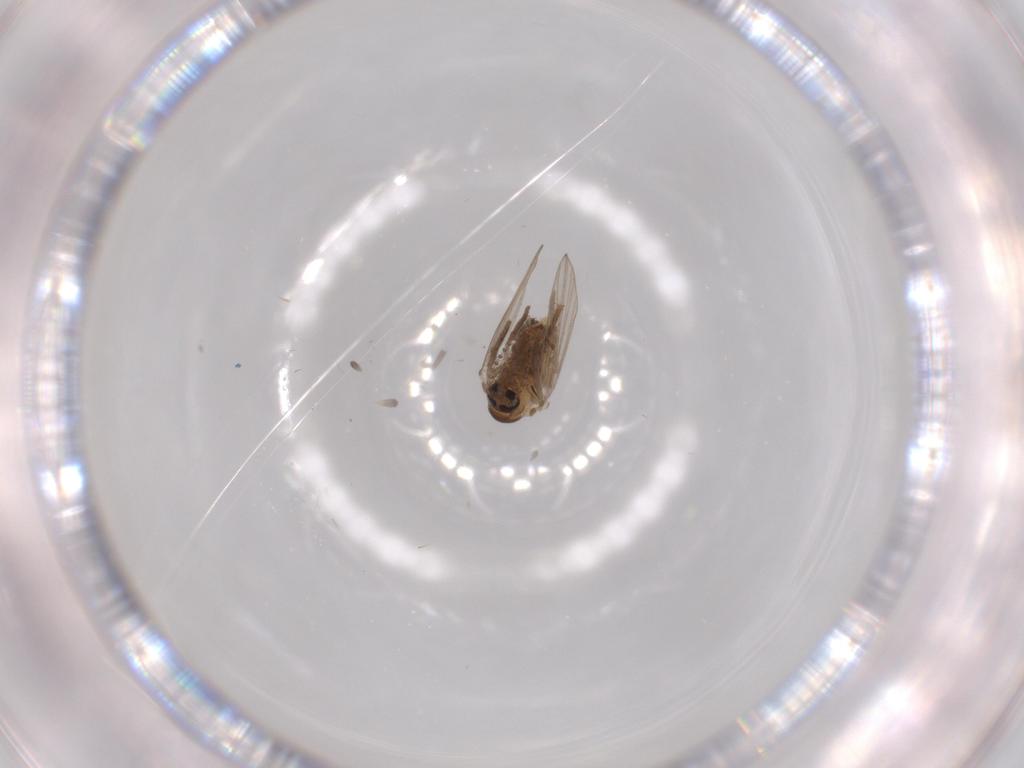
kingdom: Animalia
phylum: Arthropoda
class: Insecta
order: Diptera
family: Psychodidae
